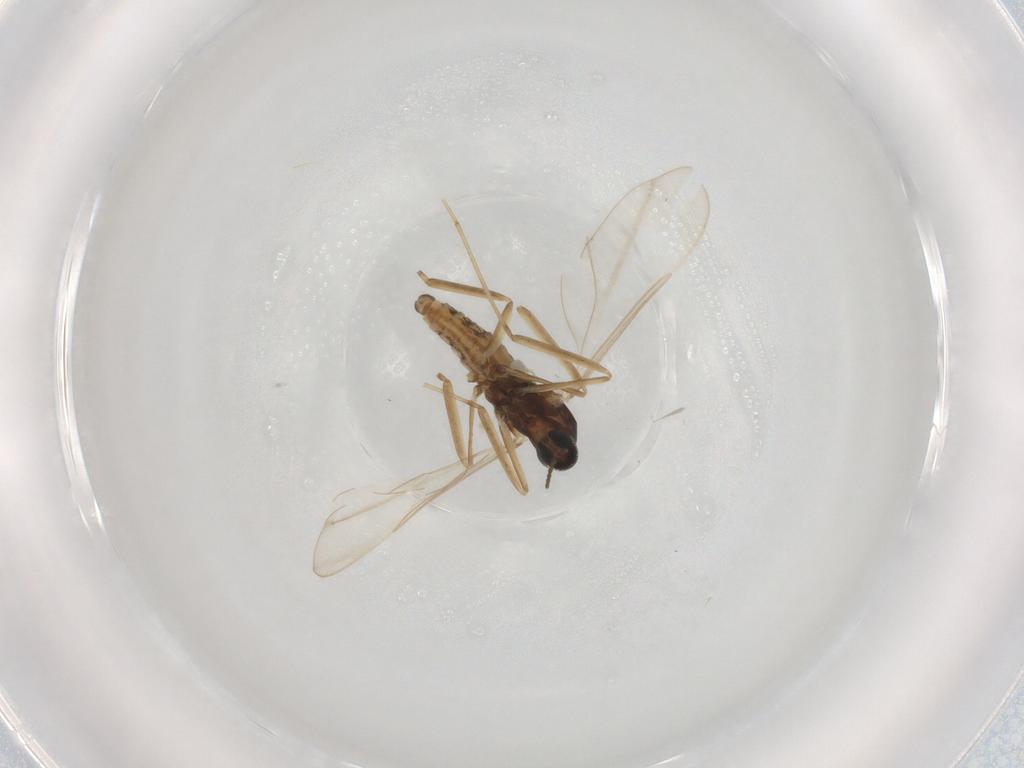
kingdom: Animalia
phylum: Arthropoda
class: Insecta
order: Diptera
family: Cecidomyiidae
